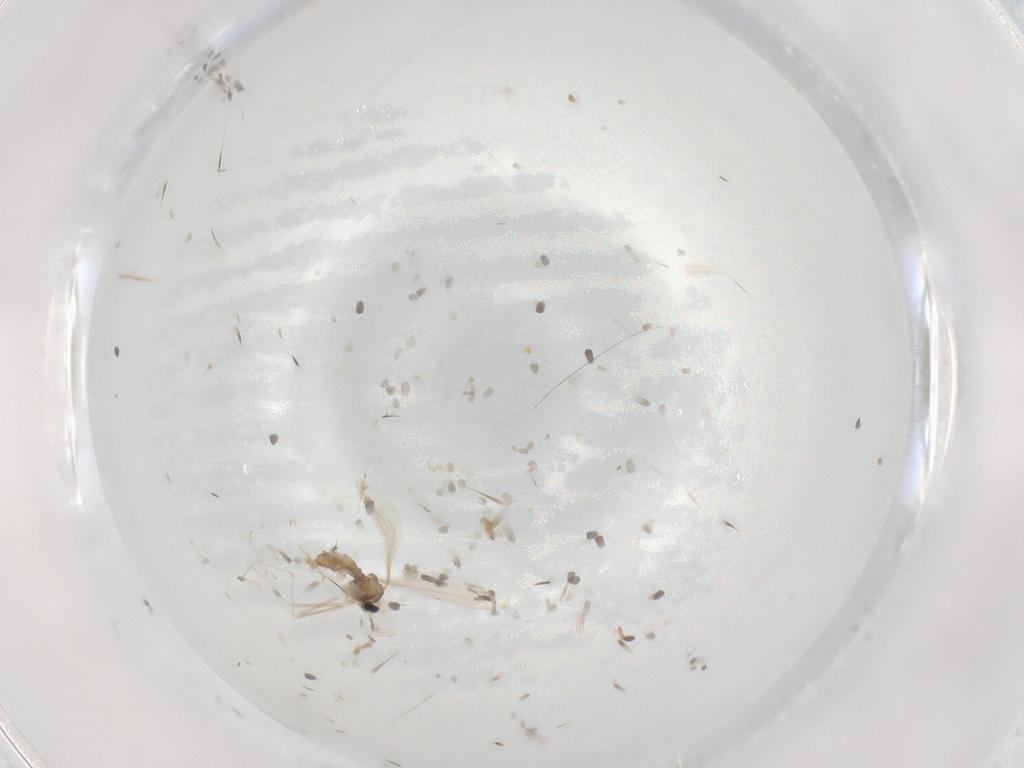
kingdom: Animalia
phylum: Arthropoda
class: Insecta
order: Diptera
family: Cecidomyiidae
